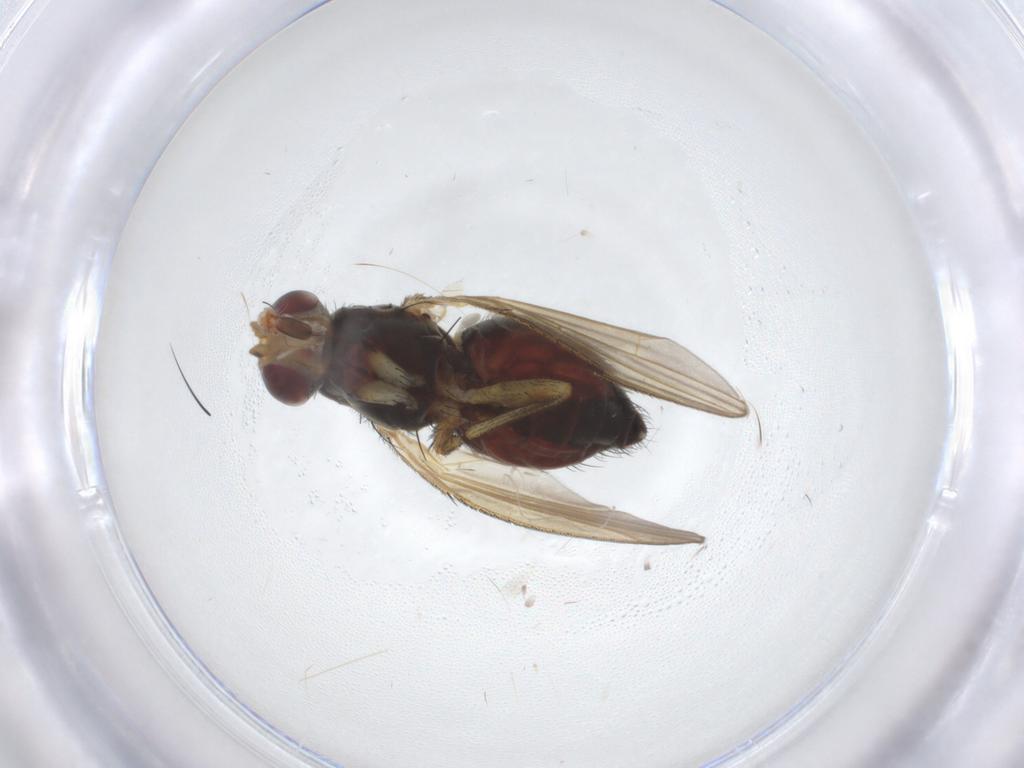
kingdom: Animalia
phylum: Arthropoda
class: Insecta
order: Diptera
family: Ulidiidae
